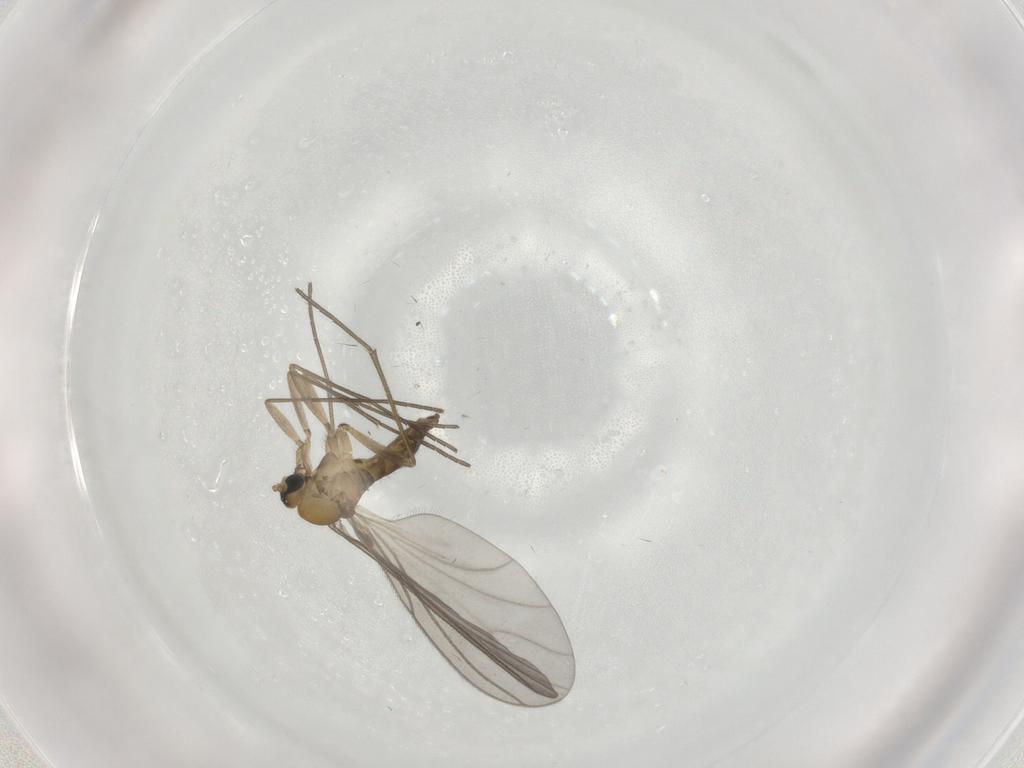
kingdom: Animalia
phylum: Arthropoda
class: Insecta
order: Diptera
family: Sciaridae
